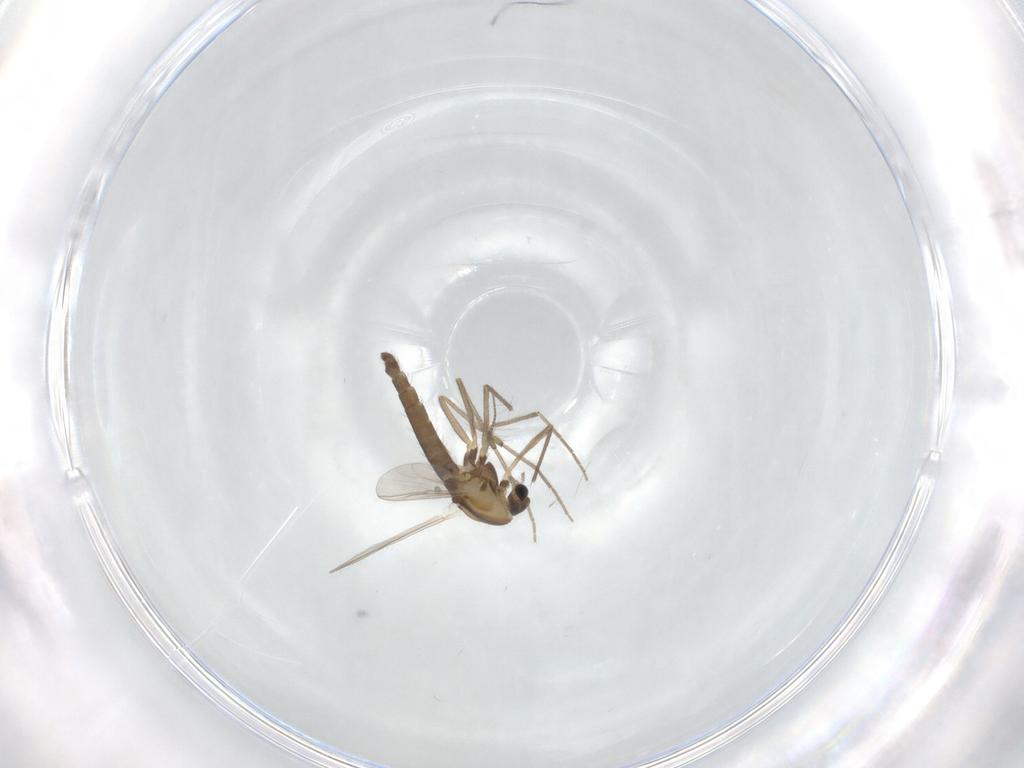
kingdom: Animalia
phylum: Arthropoda
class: Insecta
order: Diptera
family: Chironomidae
